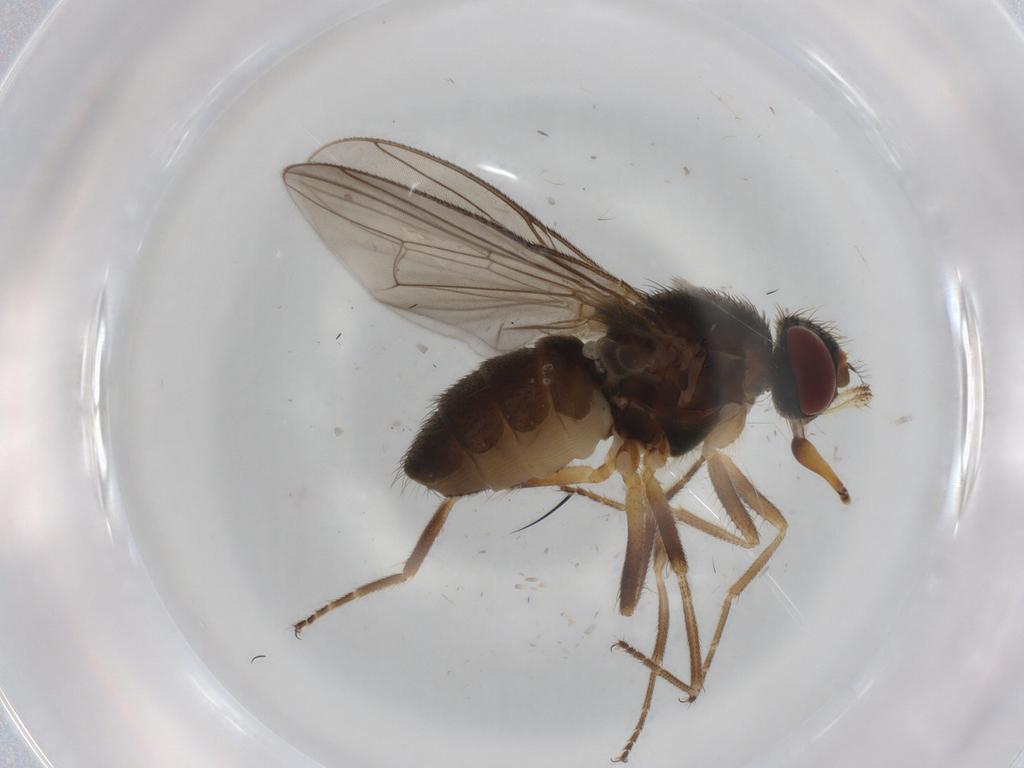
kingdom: Animalia
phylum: Arthropoda
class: Insecta
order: Diptera
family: Muscidae
